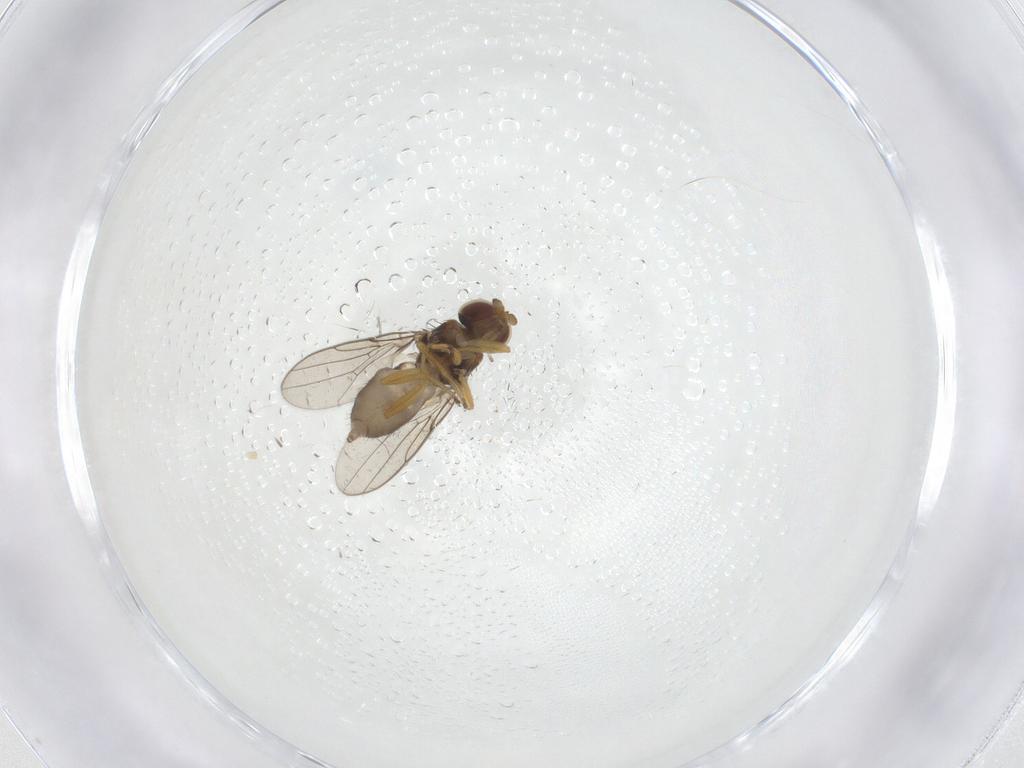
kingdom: Animalia
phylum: Arthropoda
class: Insecta
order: Diptera
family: Chloropidae
